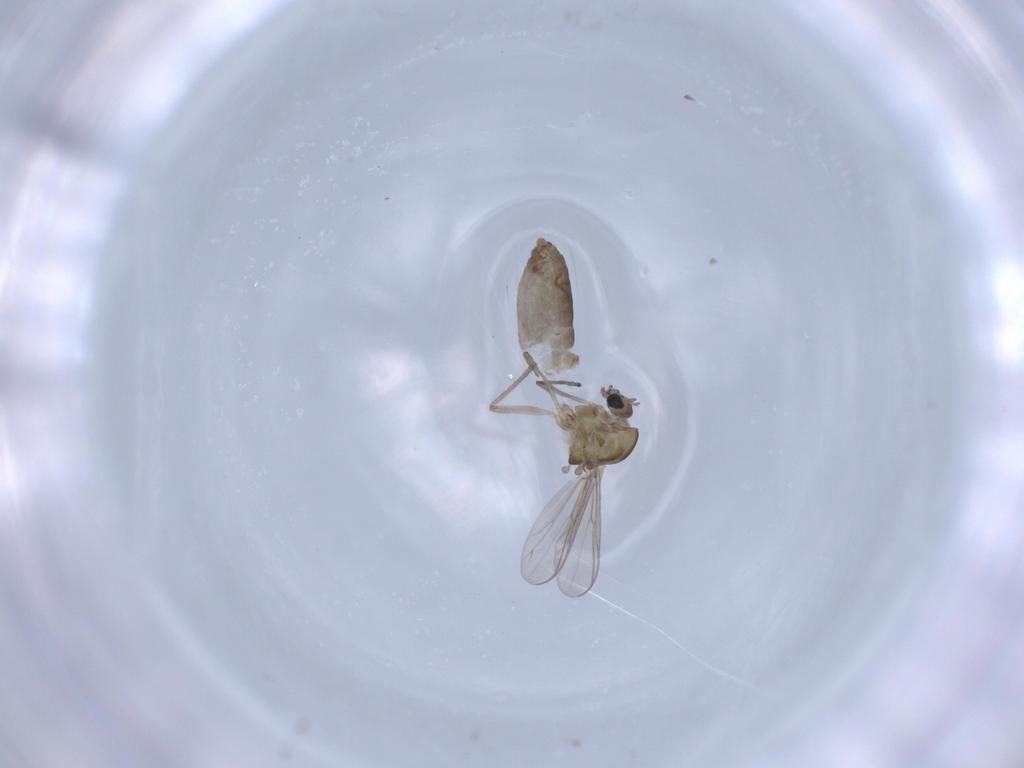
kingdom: Animalia
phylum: Arthropoda
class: Insecta
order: Diptera
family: Chironomidae
